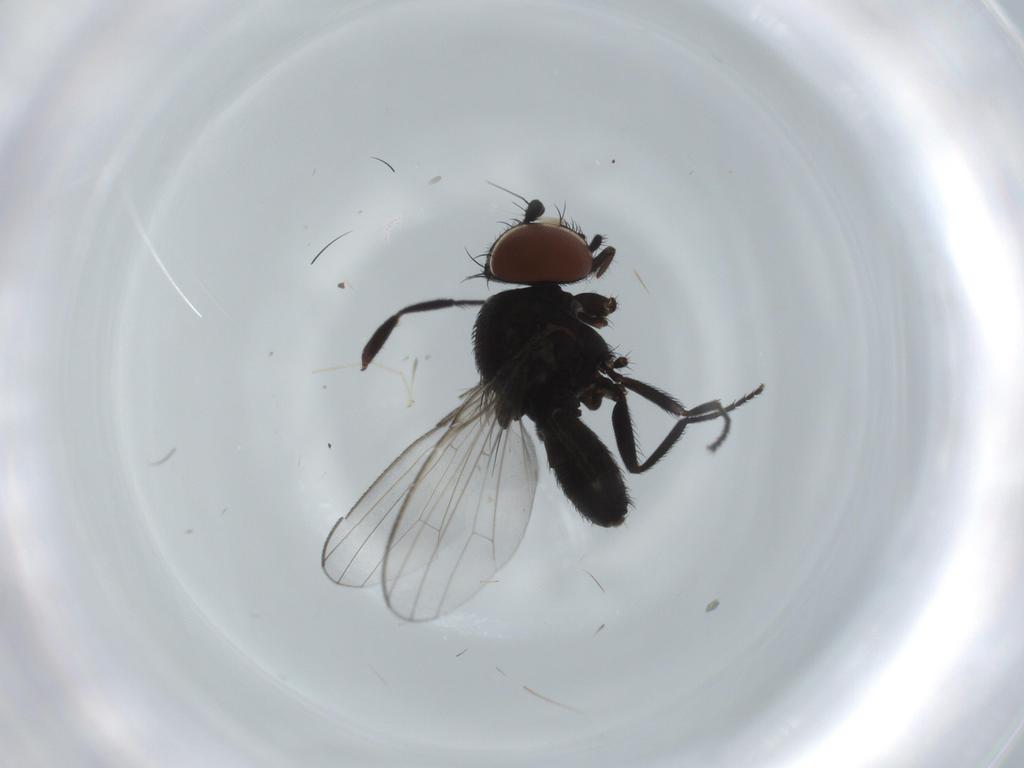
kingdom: Animalia
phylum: Arthropoda
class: Insecta
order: Diptera
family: Milichiidae
